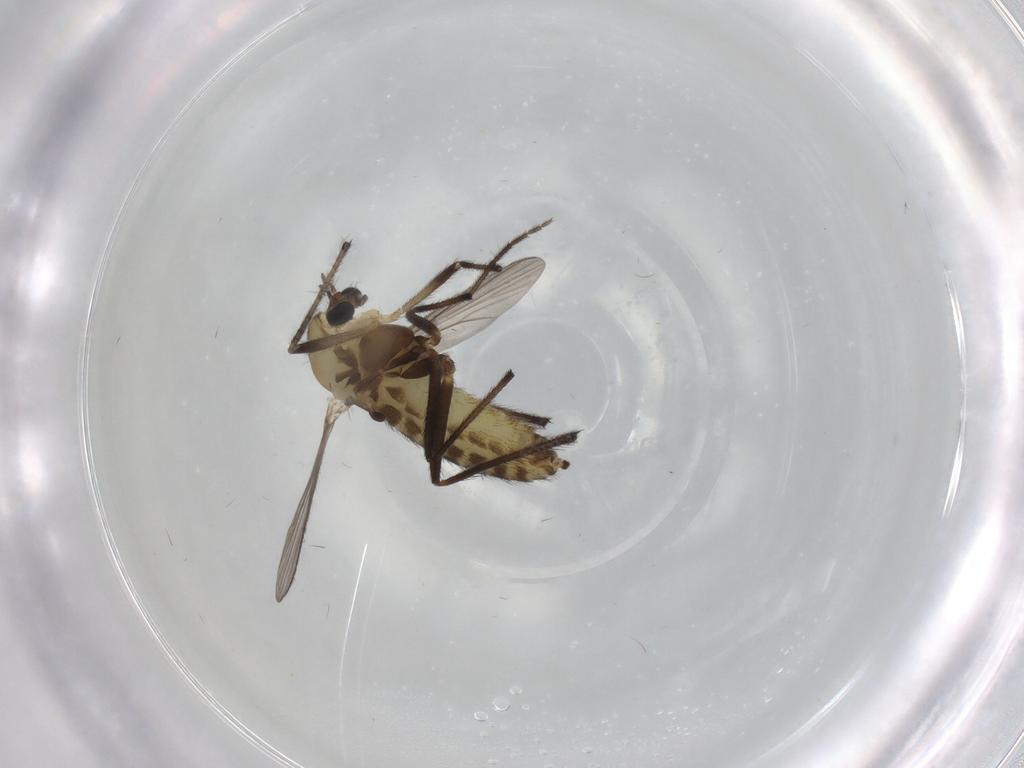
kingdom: Animalia
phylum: Arthropoda
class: Insecta
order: Diptera
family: Chironomidae
